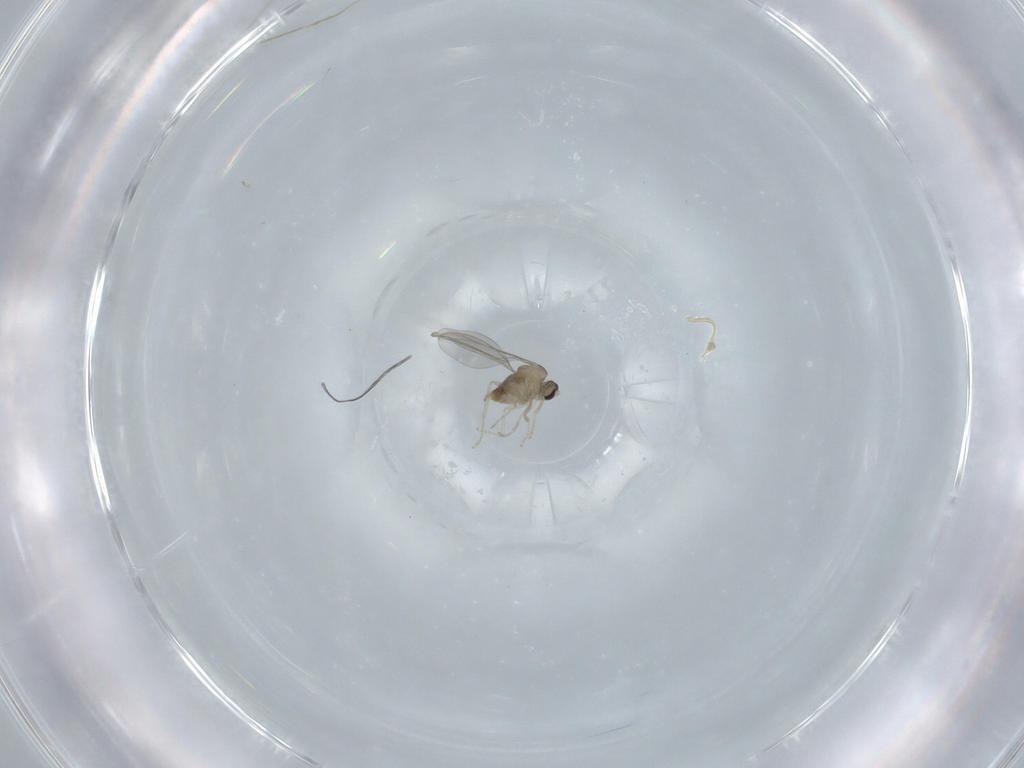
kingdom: Animalia
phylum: Arthropoda
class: Insecta
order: Diptera
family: Cecidomyiidae
